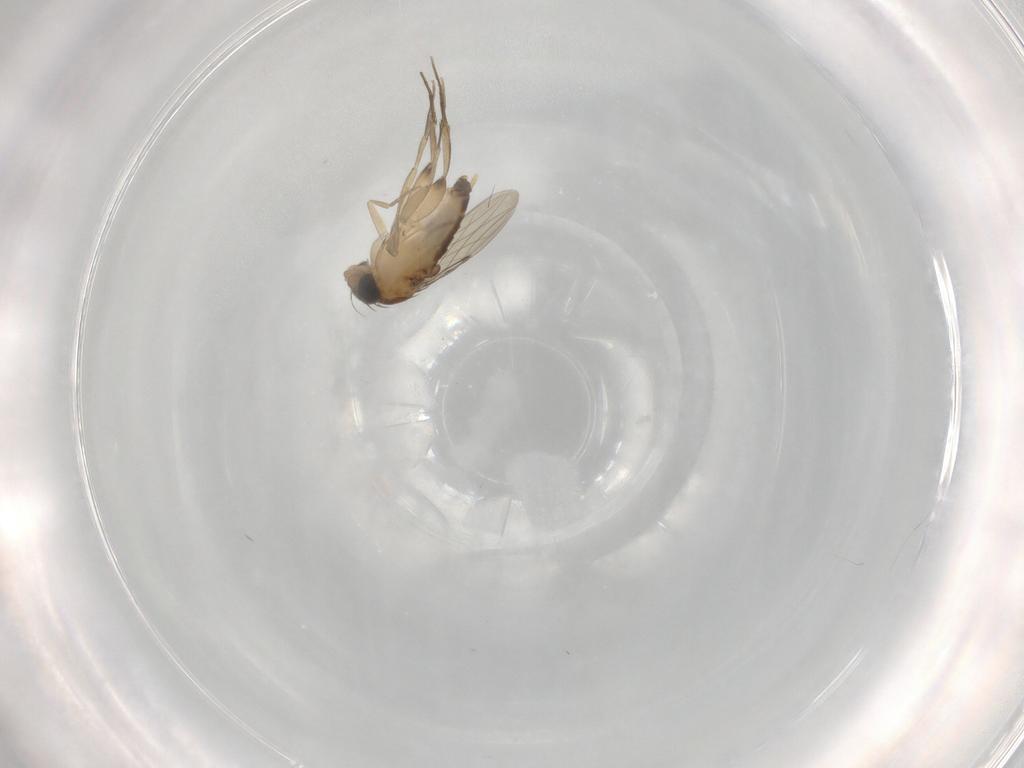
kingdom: Animalia
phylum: Arthropoda
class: Insecta
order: Diptera
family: Cecidomyiidae
